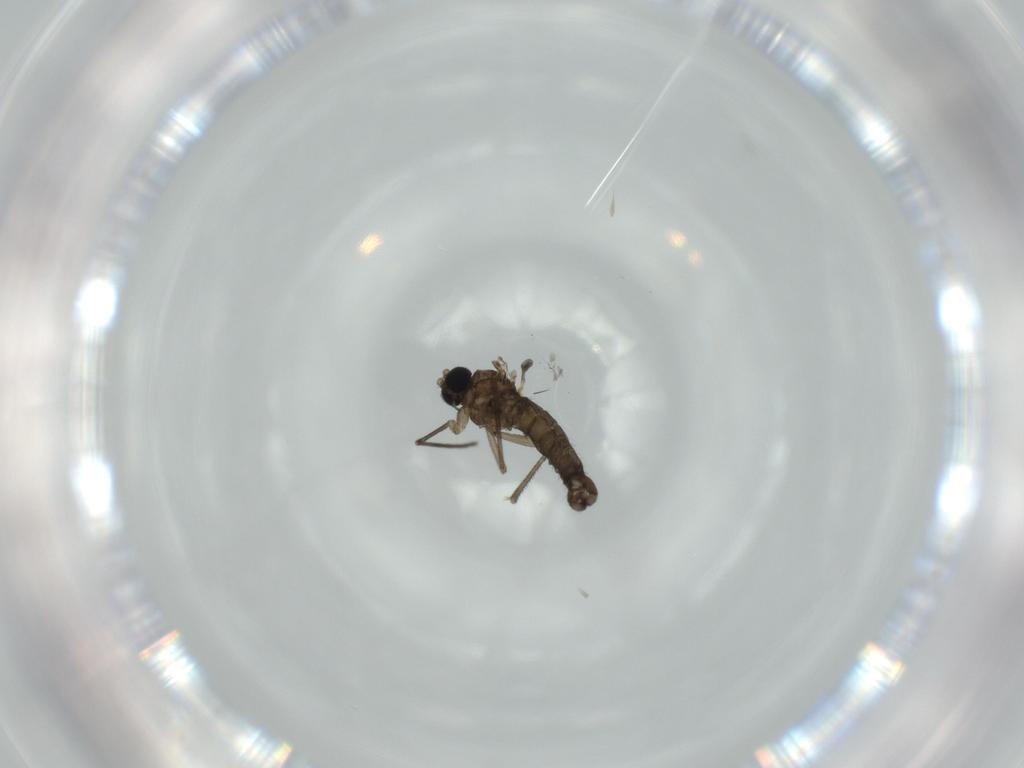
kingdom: Animalia
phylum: Arthropoda
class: Insecta
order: Diptera
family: Sciaridae
